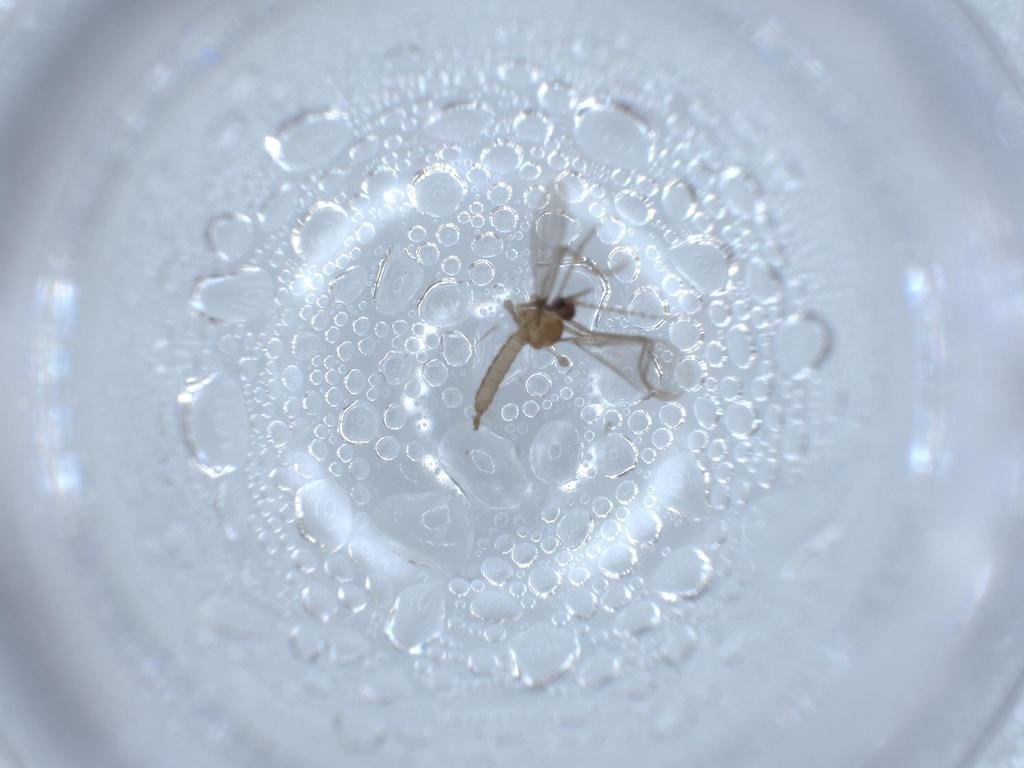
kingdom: Animalia
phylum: Arthropoda
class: Insecta
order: Diptera
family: Cecidomyiidae
